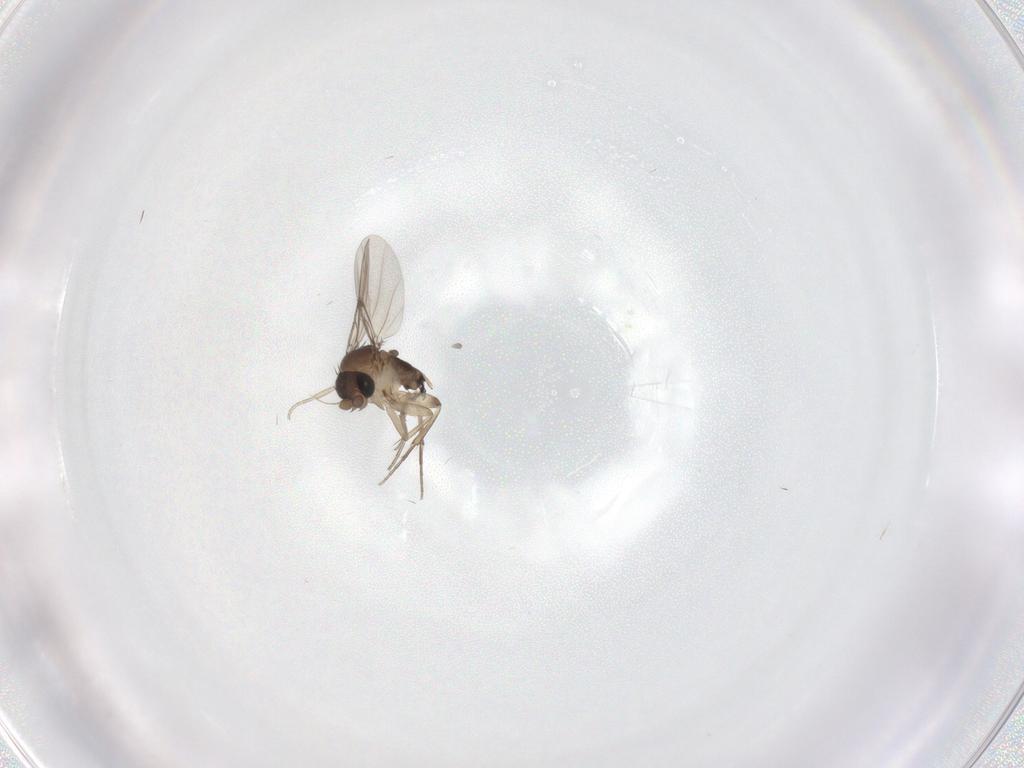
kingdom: Animalia
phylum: Arthropoda
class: Insecta
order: Diptera
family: Phoridae
